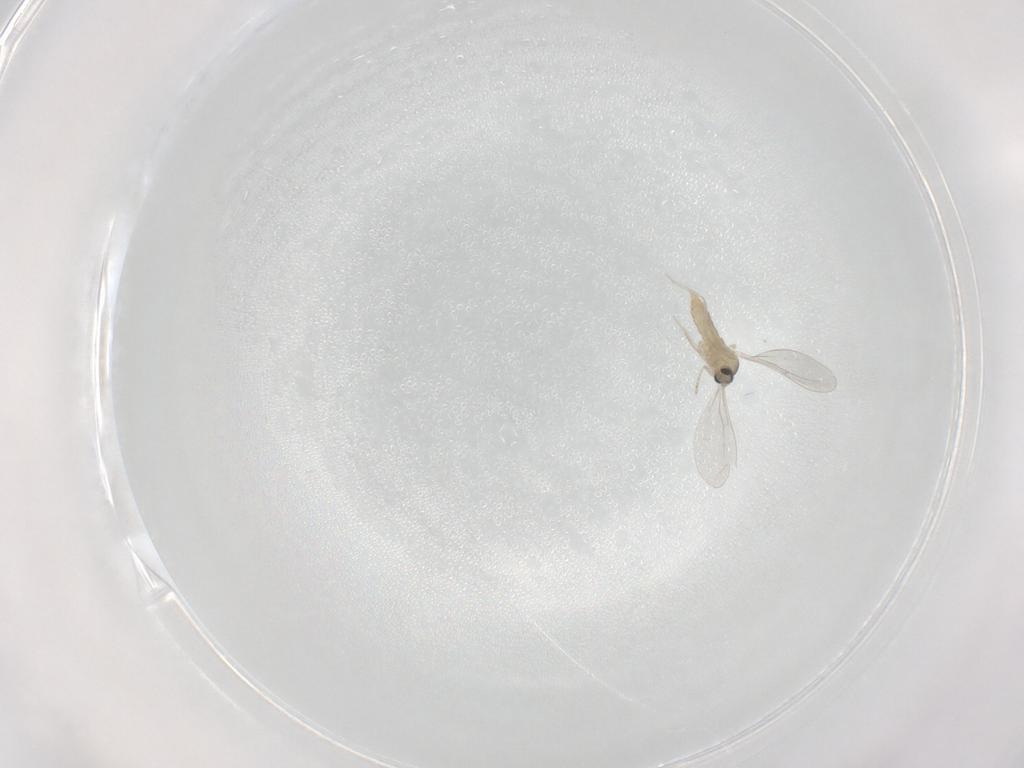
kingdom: Animalia
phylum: Arthropoda
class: Insecta
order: Diptera
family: Cecidomyiidae
